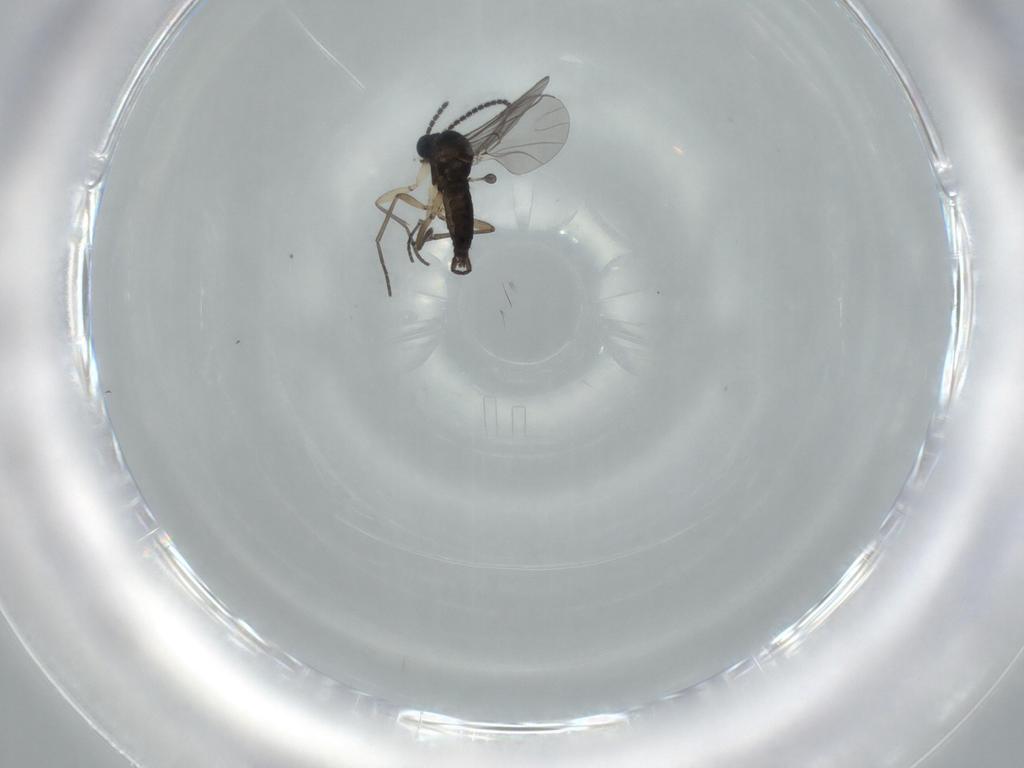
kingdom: Animalia
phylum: Arthropoda
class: Insecta
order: Diptera
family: Sciaridae
